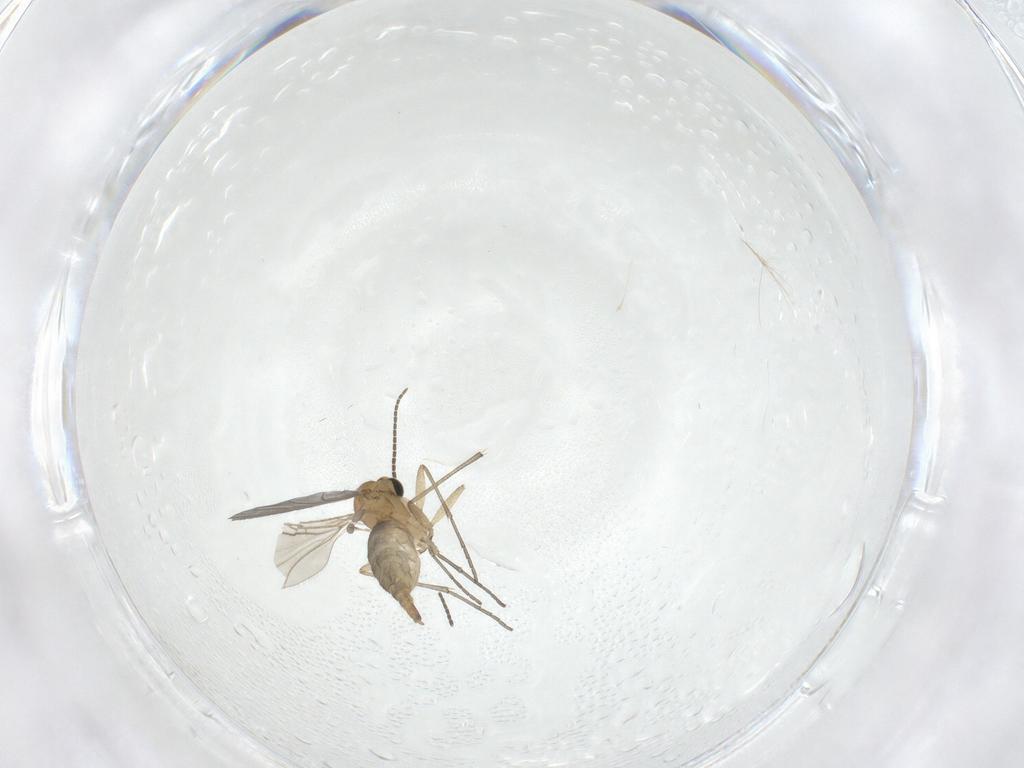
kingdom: Animalia
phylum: Arthropoda
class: Insecta
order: Diptera
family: Sciaridae
